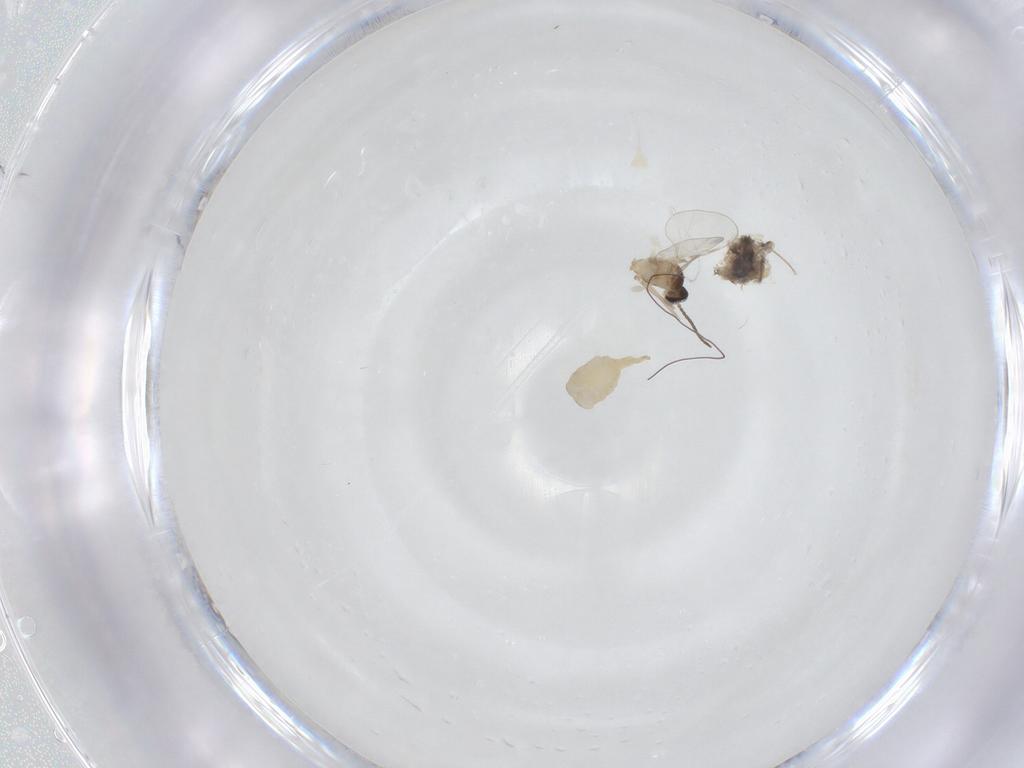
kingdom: Animalia
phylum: Arthropoda
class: Insecta
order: Diptera
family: Cecidomyiidae
